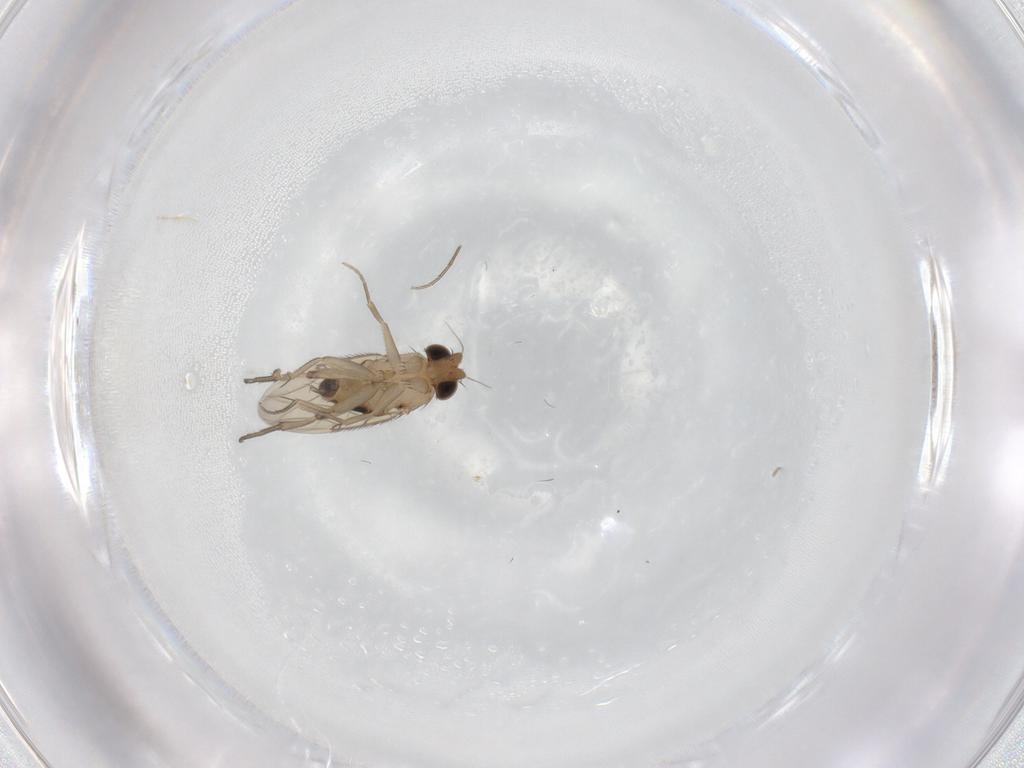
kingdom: Animalia
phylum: Arthropoda
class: Insecta
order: Diptera
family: Phoridae
